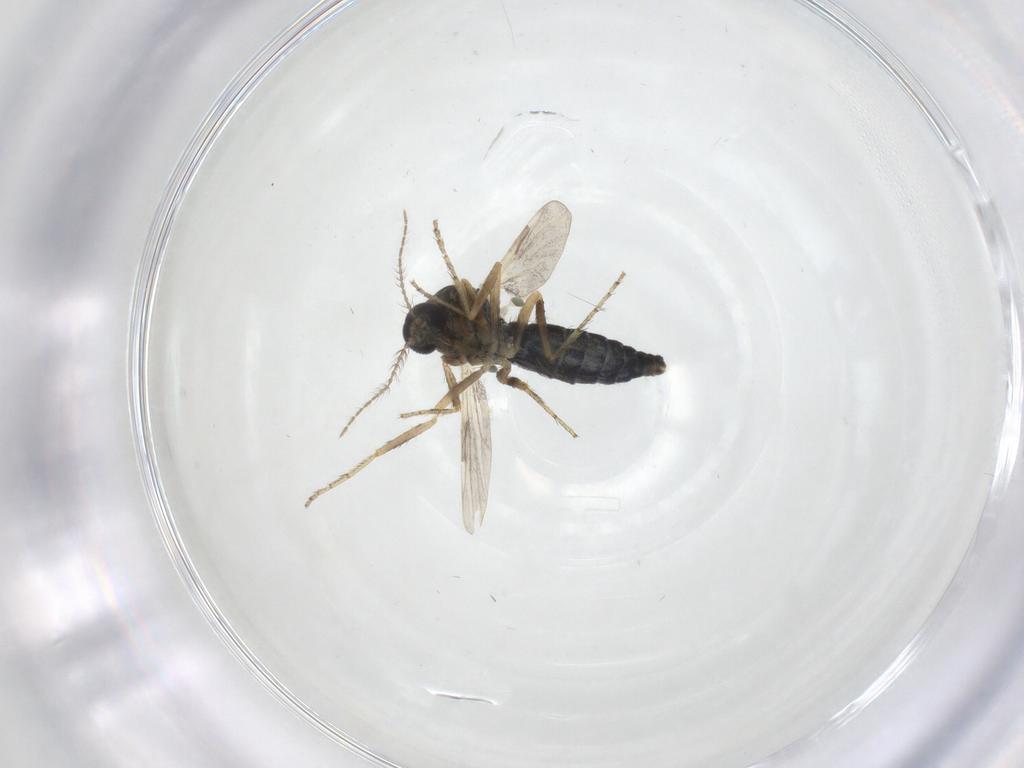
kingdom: Animalia
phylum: Arthropoda
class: Insecta
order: Diptera
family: Ceratopogonidae
